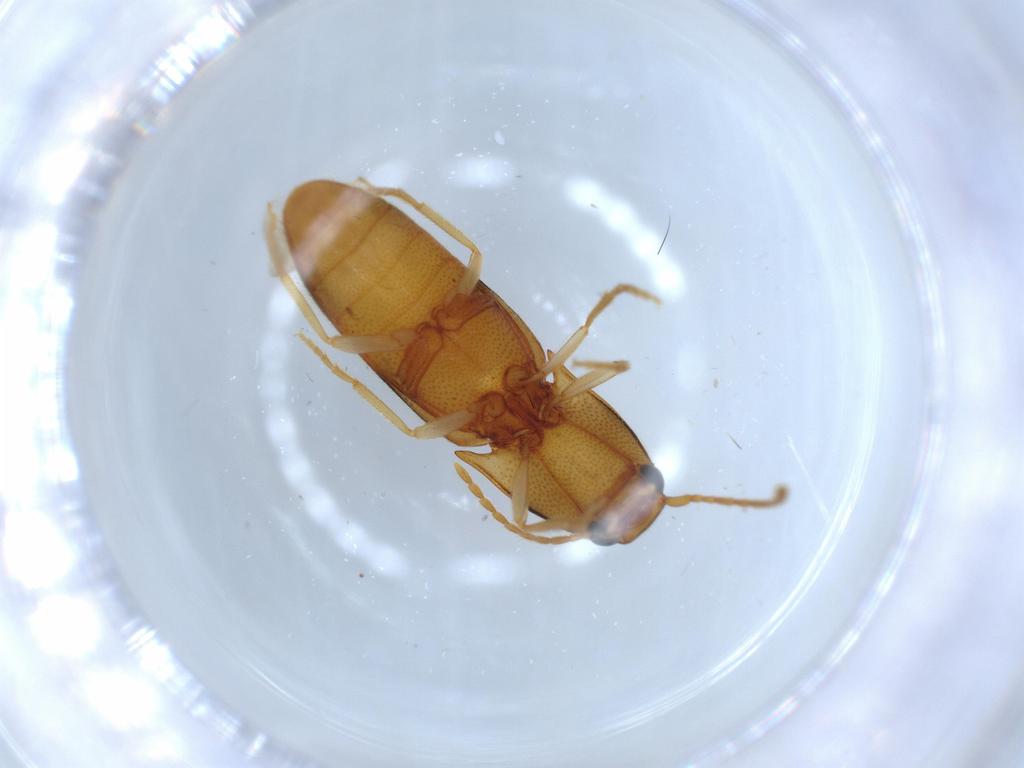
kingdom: Animalia
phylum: Arthropoda
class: Insecta
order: Coleoptera
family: Elateridae
